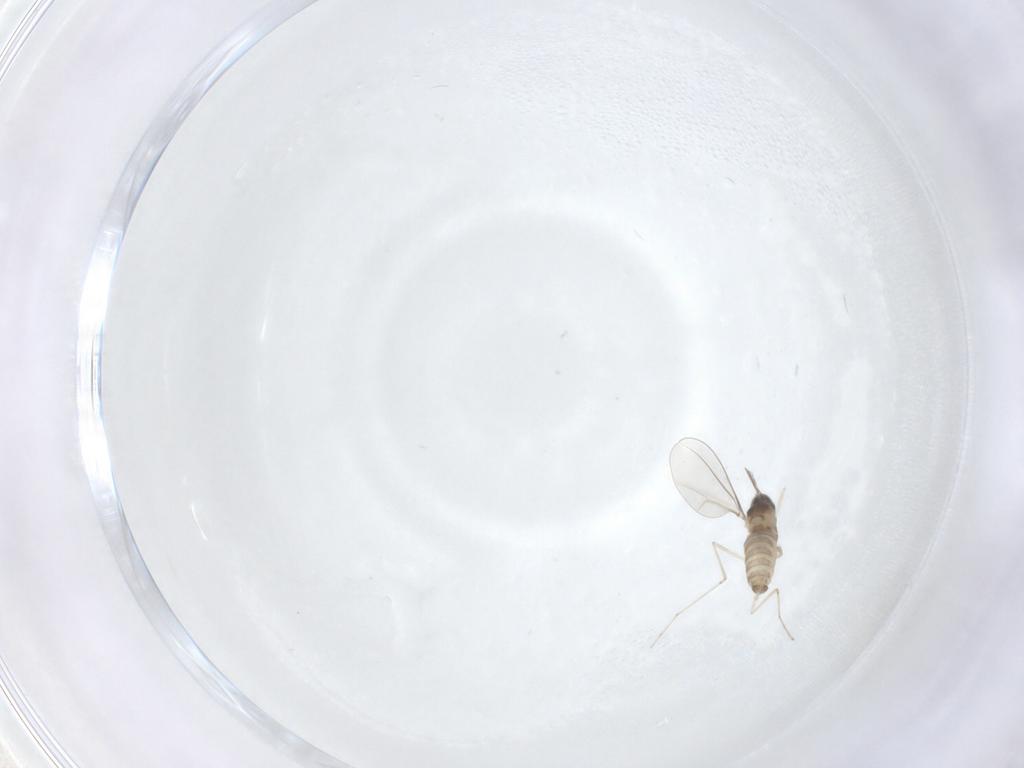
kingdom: Animalia
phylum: Arthropoda
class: Insecta
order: Diptera
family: Cecidomyiidae
